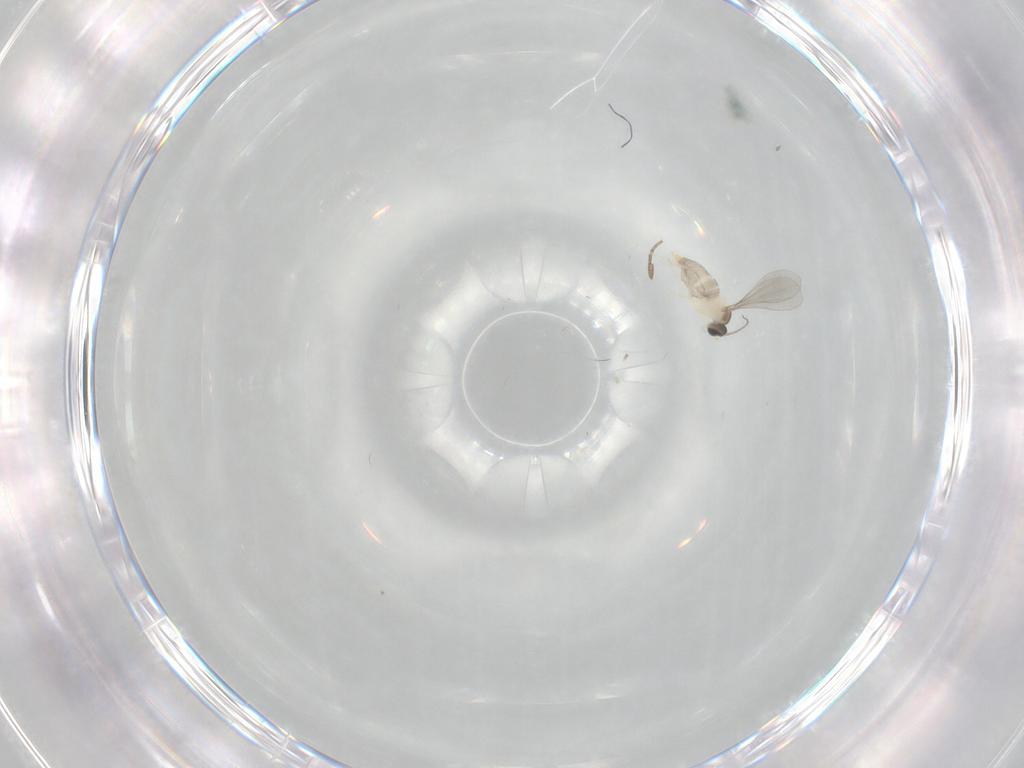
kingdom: Animalia
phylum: Arthropoda
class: Insecta
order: Diptera
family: Cecidomyiidae
